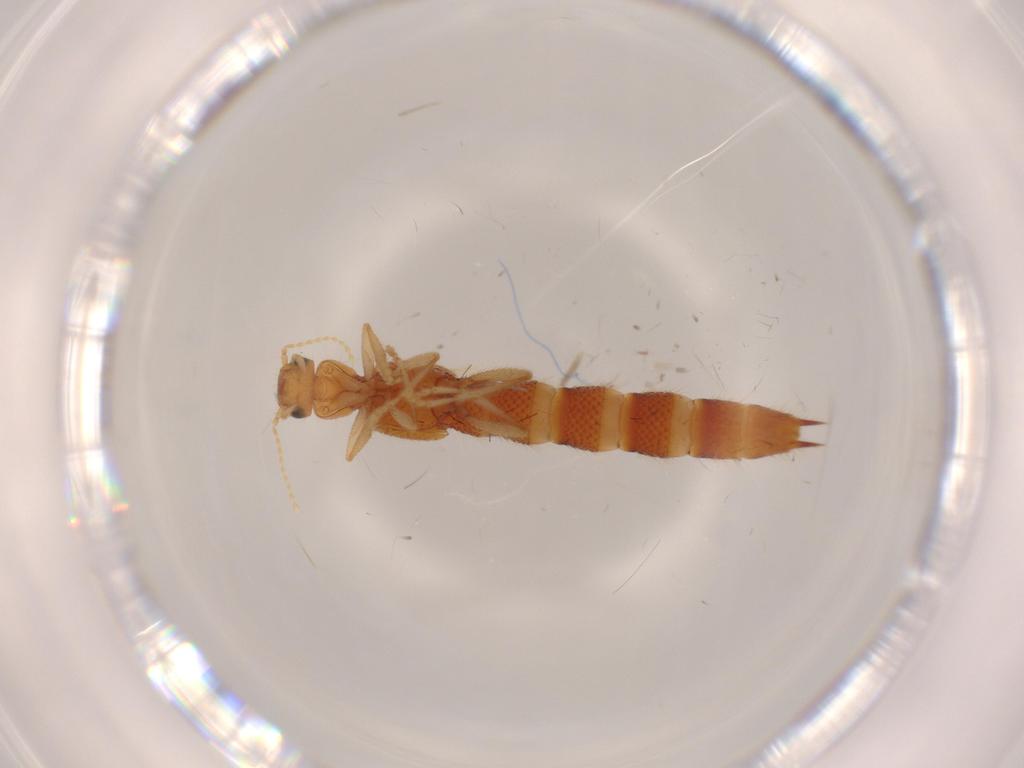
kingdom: Animalia
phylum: Arthropoda
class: Insecta
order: Coleoptera
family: Staphylinidae
